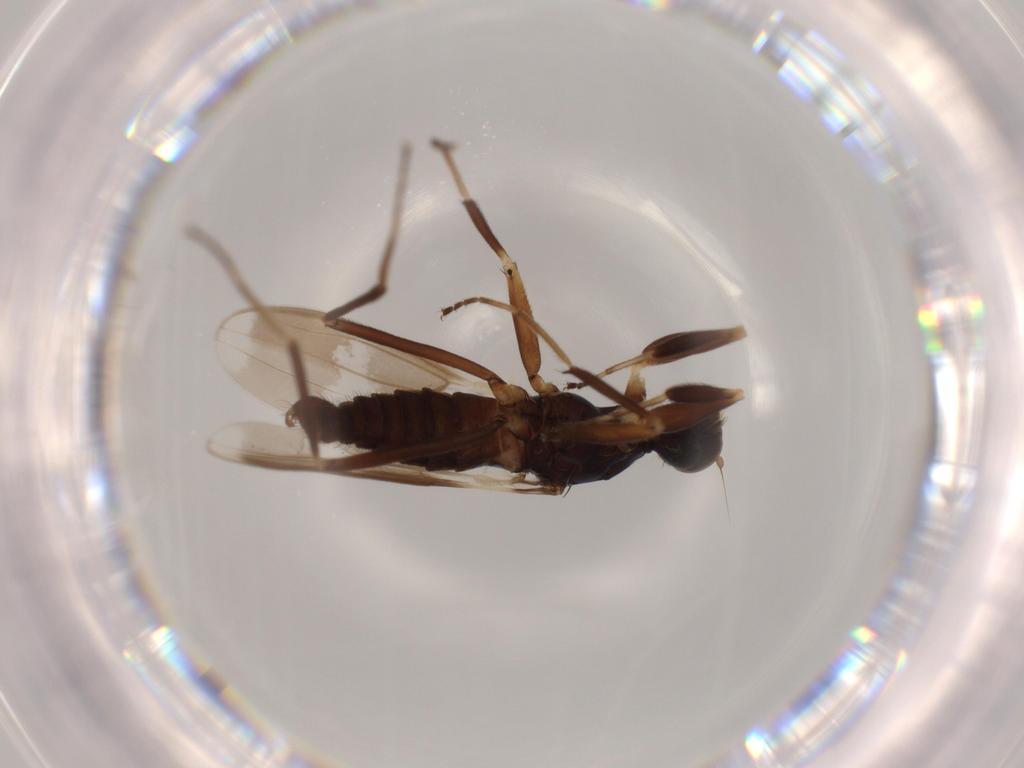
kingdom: Animalia
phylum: Arthropoda
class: Insecta
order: Diptera
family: Hybotidae
